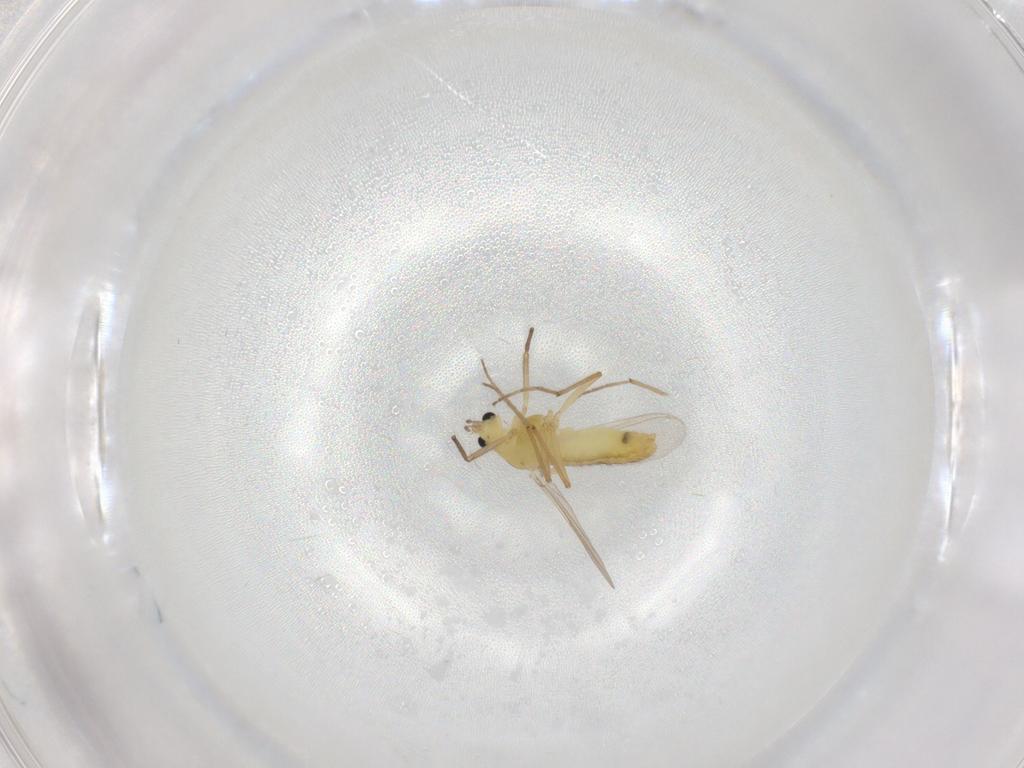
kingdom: Animalia
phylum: Arthropoda
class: Insecta
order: Diptera
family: Chironomidae
